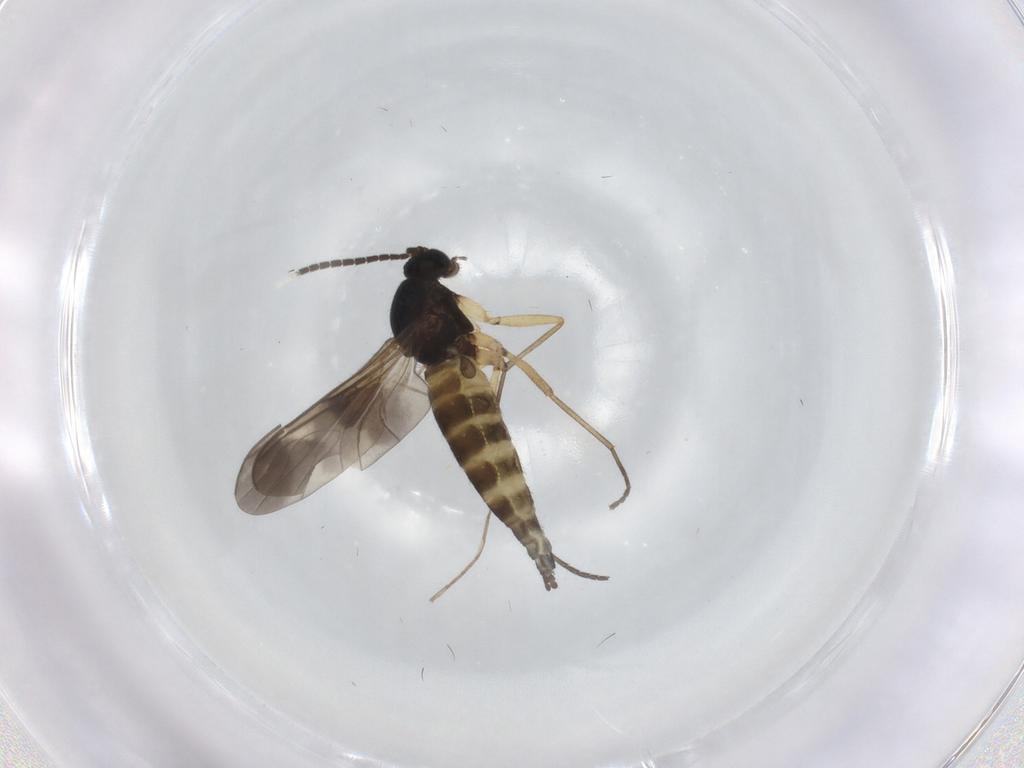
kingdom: Animalia
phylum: Arthropoda
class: Insecta
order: Diptera
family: Sciaridae
